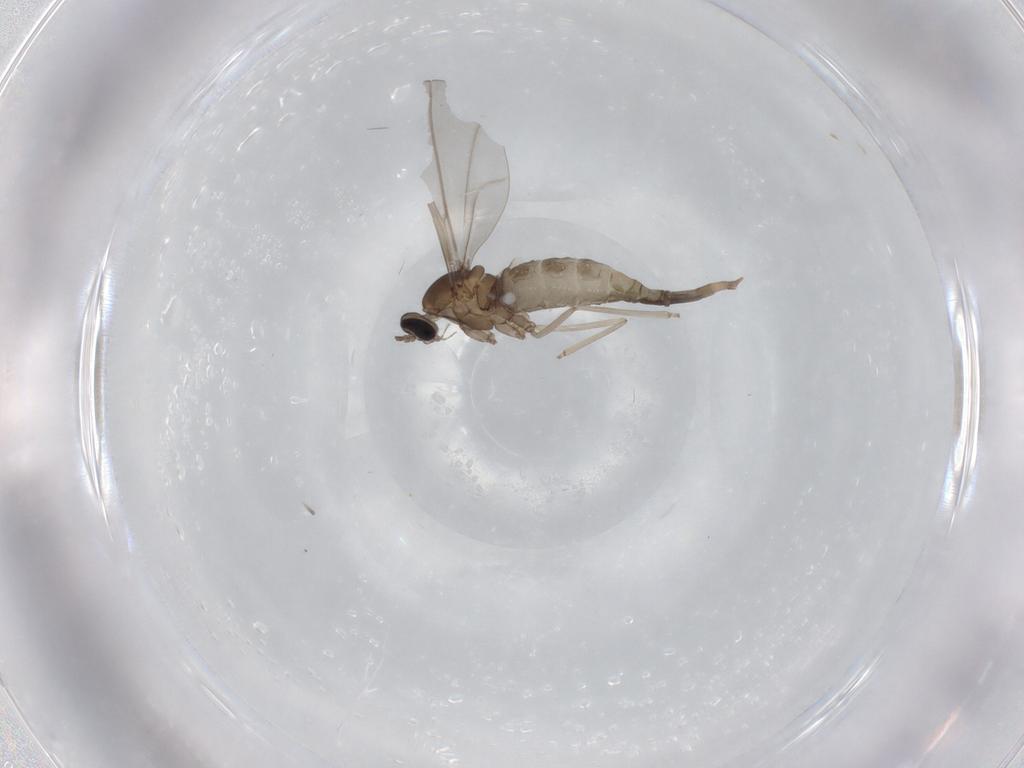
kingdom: Animalia
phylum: Arthropoda
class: Insecta
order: Diptera
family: Cecidomyiidae
